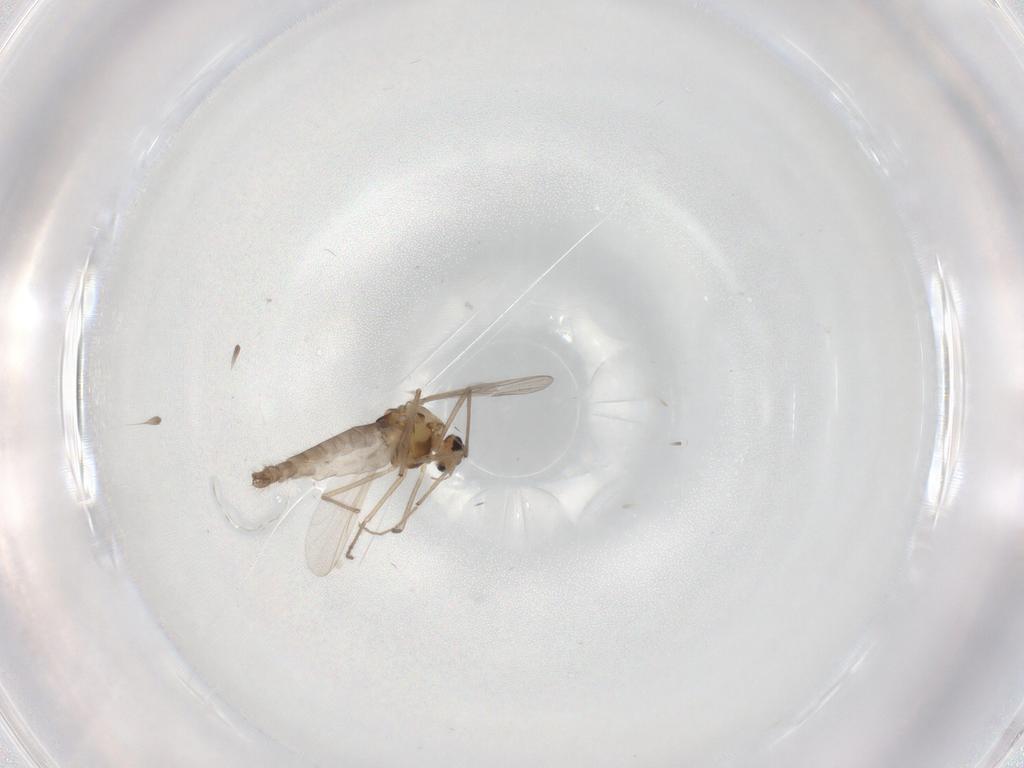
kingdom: Animalia
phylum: Arthropoda
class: Insecta
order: Diptera
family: Chironomidae
